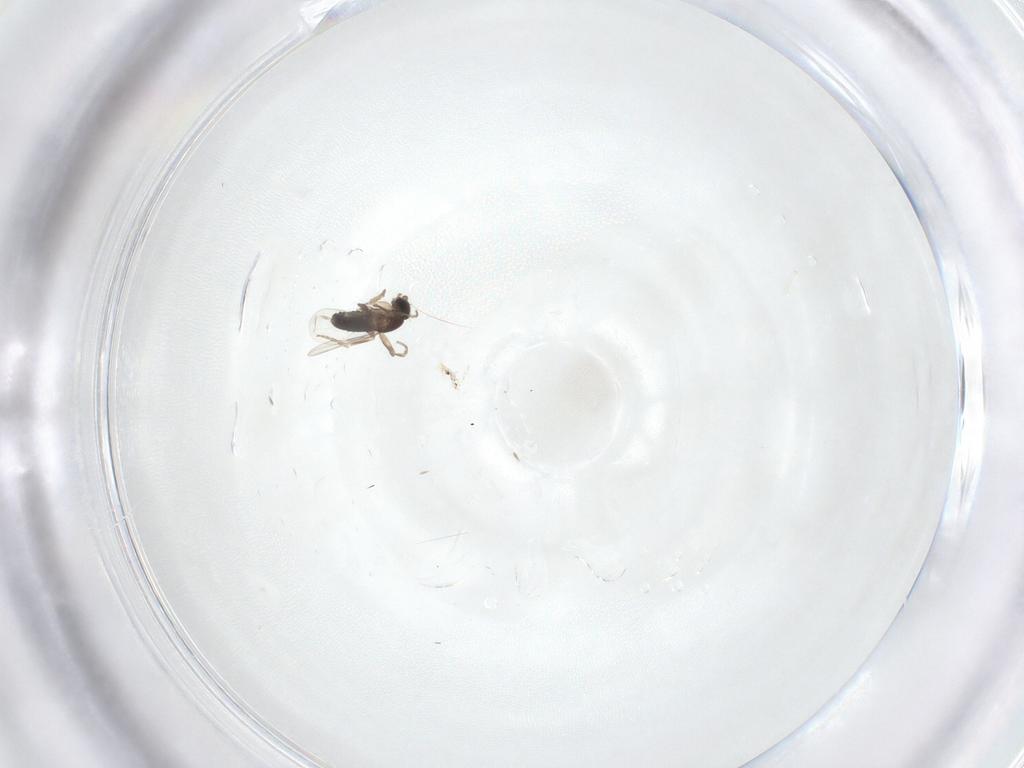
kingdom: Animalia
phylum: Arthropoda
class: Insecta
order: Diptera
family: Phoridae
